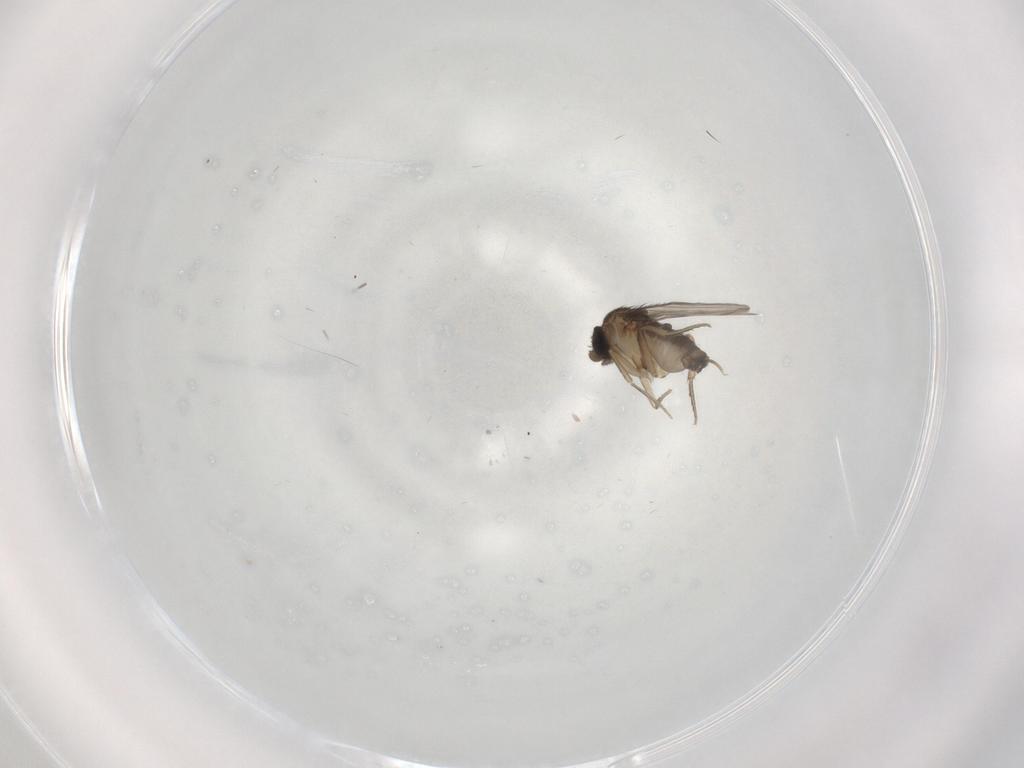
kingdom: Animalia
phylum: Arthropoda
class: Insecta
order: Diptera
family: Phoridae
